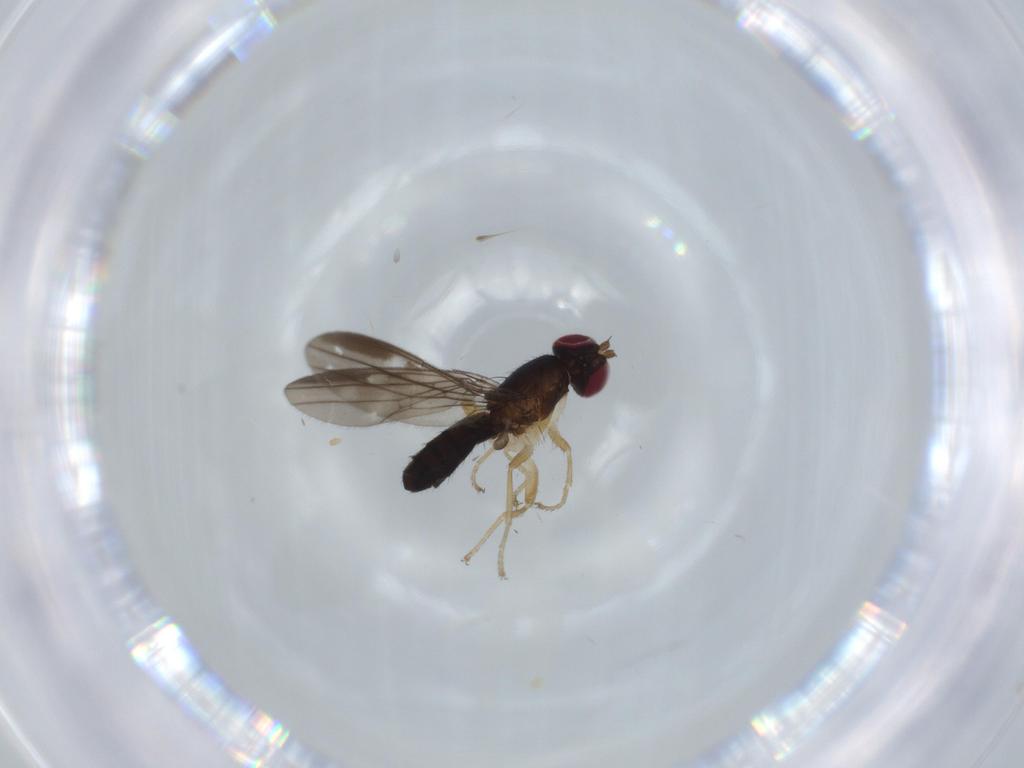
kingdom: Animalia
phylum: Arthropoda
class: Insecta
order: Diptera
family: Anthomyzidae
